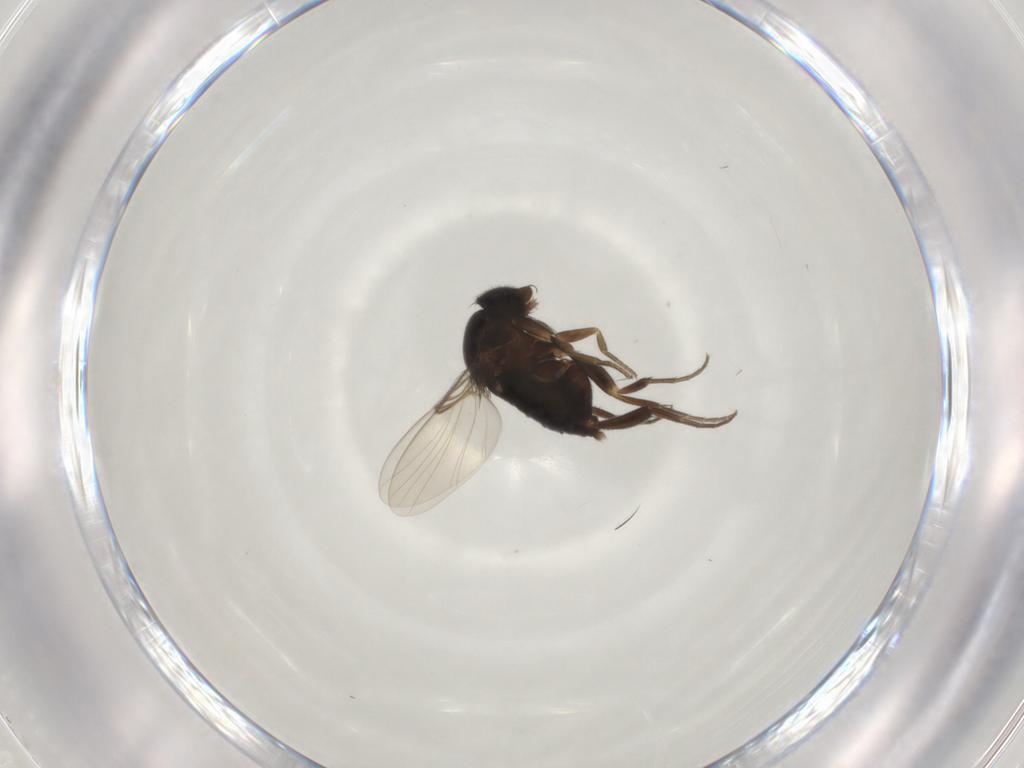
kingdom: Animalia
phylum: Arthropoda
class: Insecta
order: Diptera
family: Phoridae
